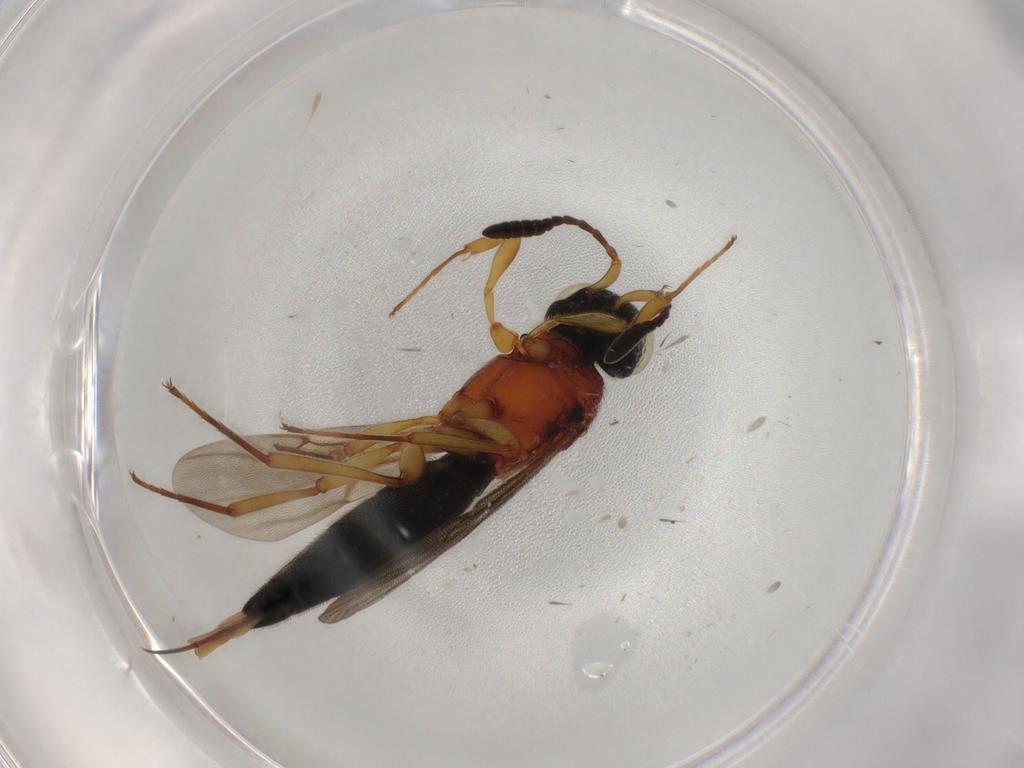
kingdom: Animalia
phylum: Arthropoda
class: Insecta
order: Hymenoptera
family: Scelionidae
